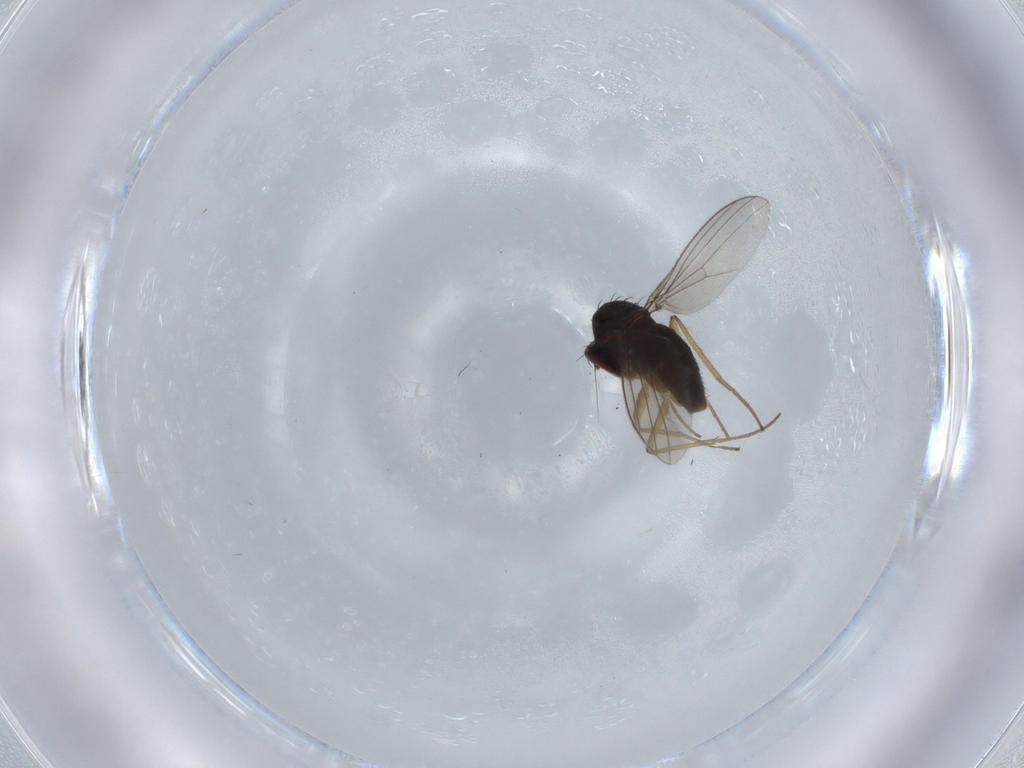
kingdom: Animalia
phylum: Arthropoda
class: Insecta
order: Diptera
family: Dolichopodidae
